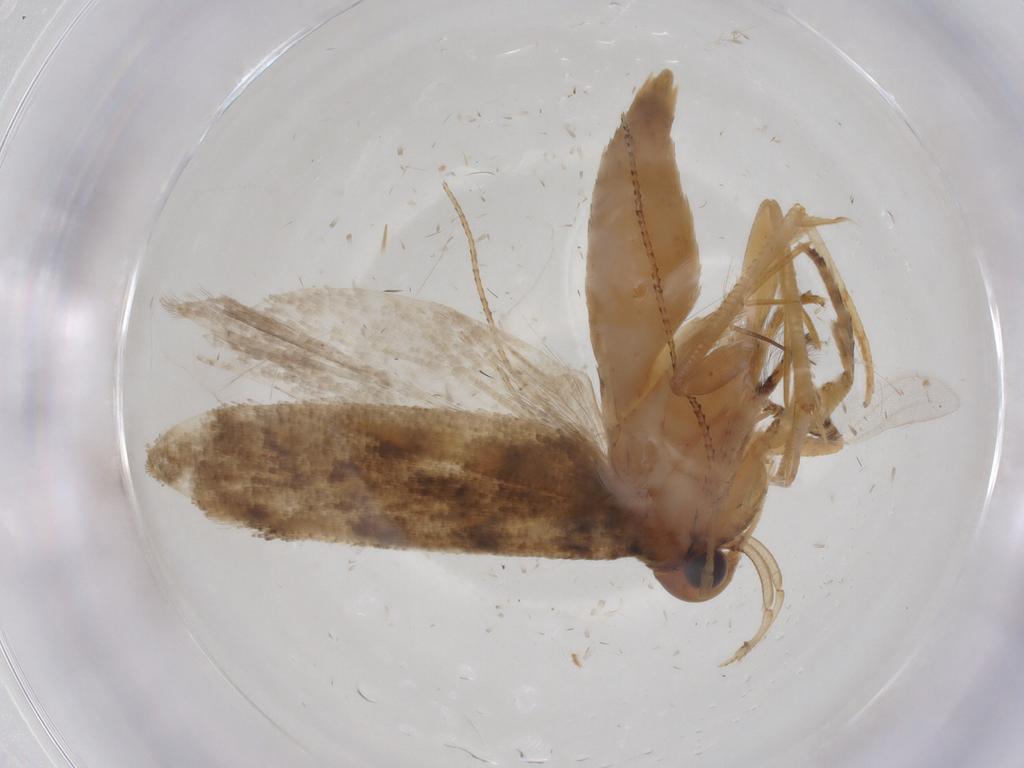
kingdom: Animalia
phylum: Arthropoda
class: Insecta
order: Lepidoptera
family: Gelechiidae
